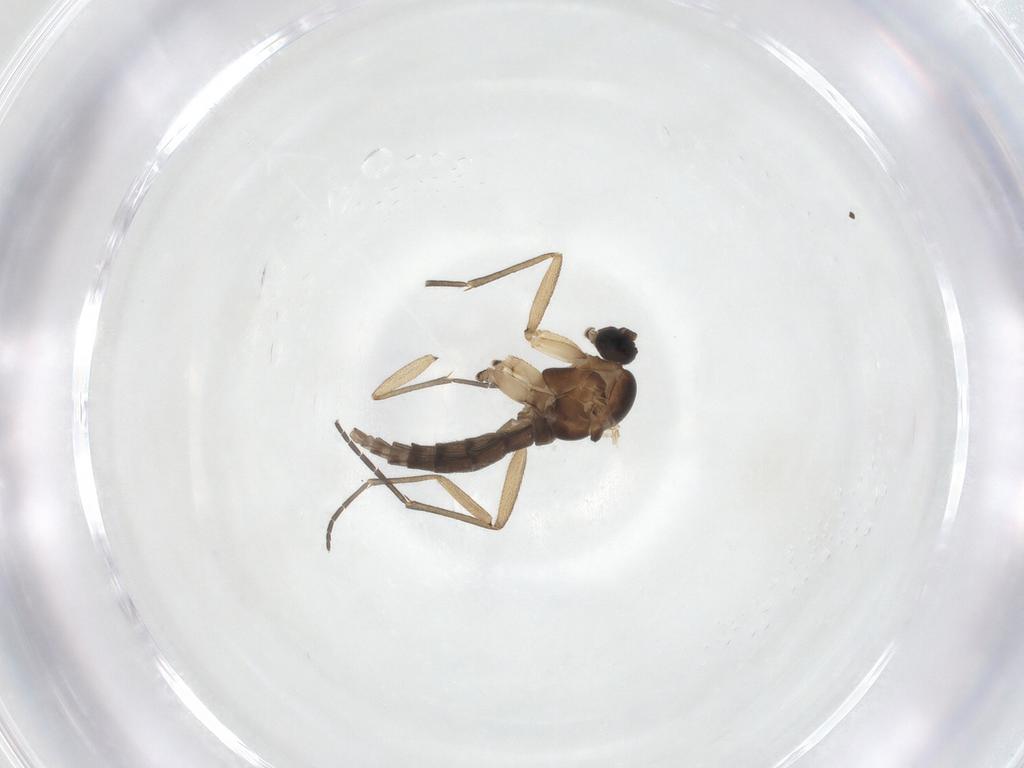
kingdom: Animalia
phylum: Arthropoda
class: Insecta
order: Diptera
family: Sciaridae
